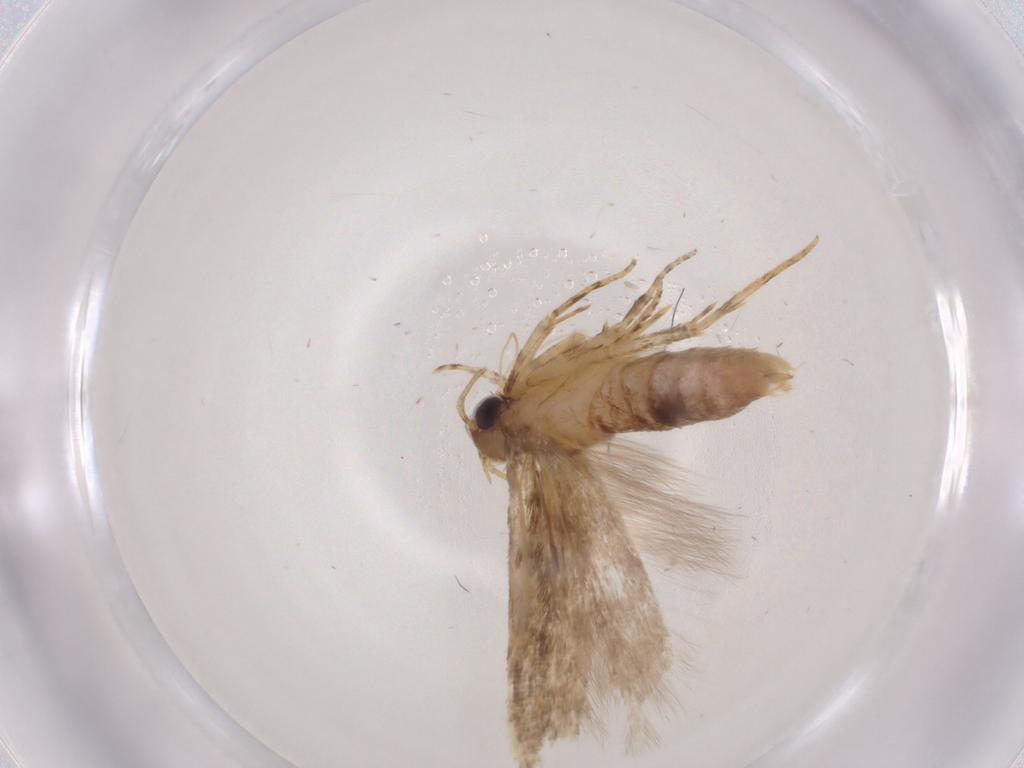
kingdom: Animalia
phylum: Arthropoda
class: Insecta
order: Lepidoptera
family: Gelechiidae
